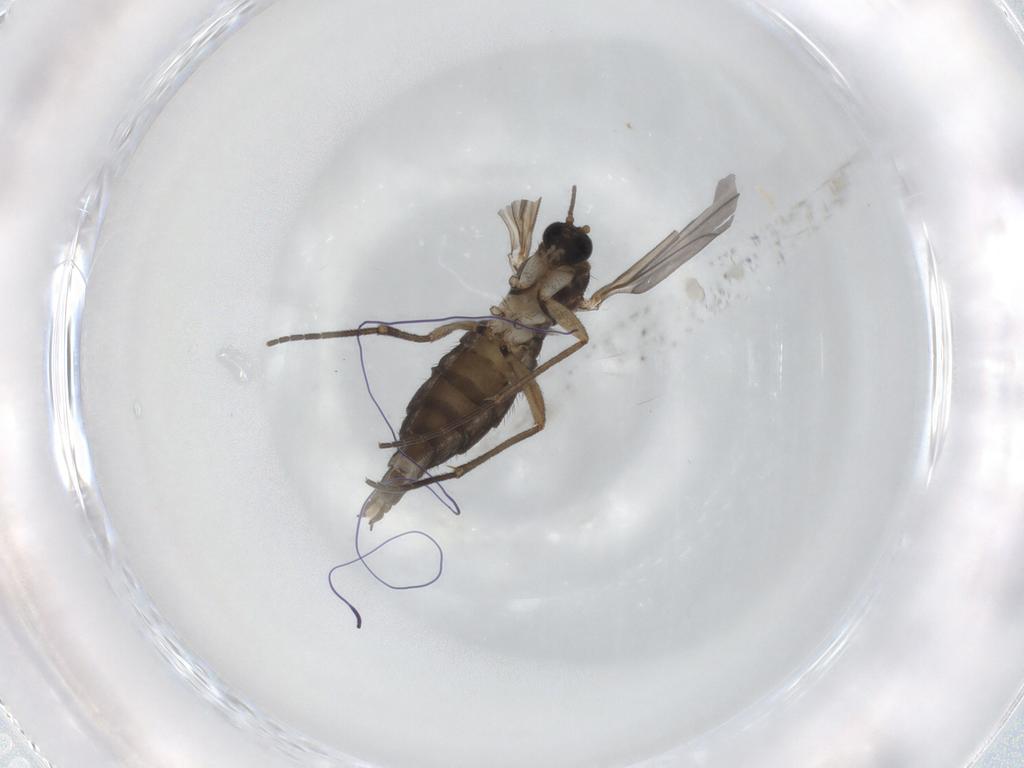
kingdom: Animalia
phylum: Arthropoda
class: Insecta
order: Diptera
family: Sciaridae
